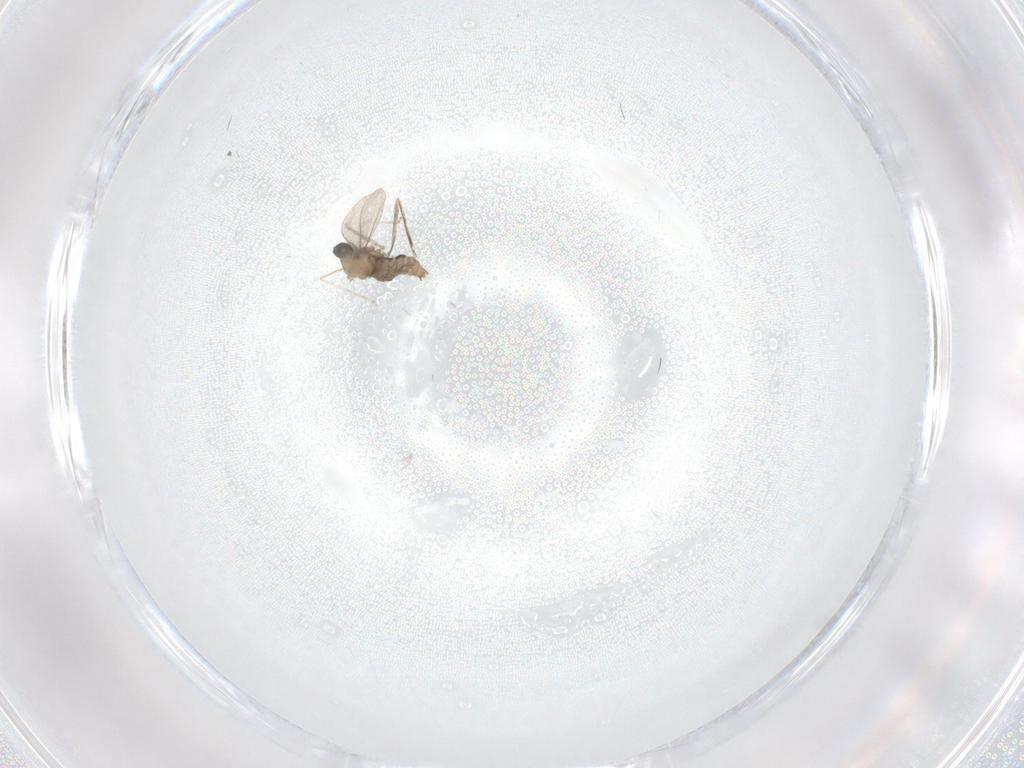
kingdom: Animalia
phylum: Arthropoda
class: Insecta
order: Diptera
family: Cecidomyiidae
